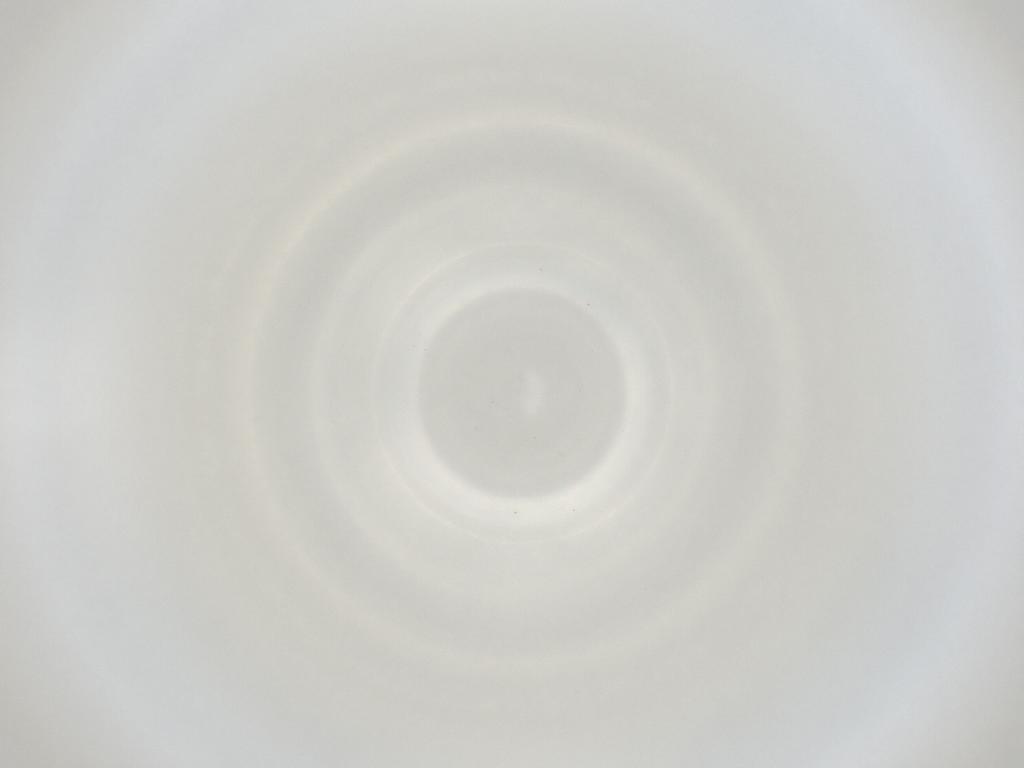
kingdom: Animalia
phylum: Arthropoda
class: Insecta
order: Diptera
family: Cecidomyiidae
